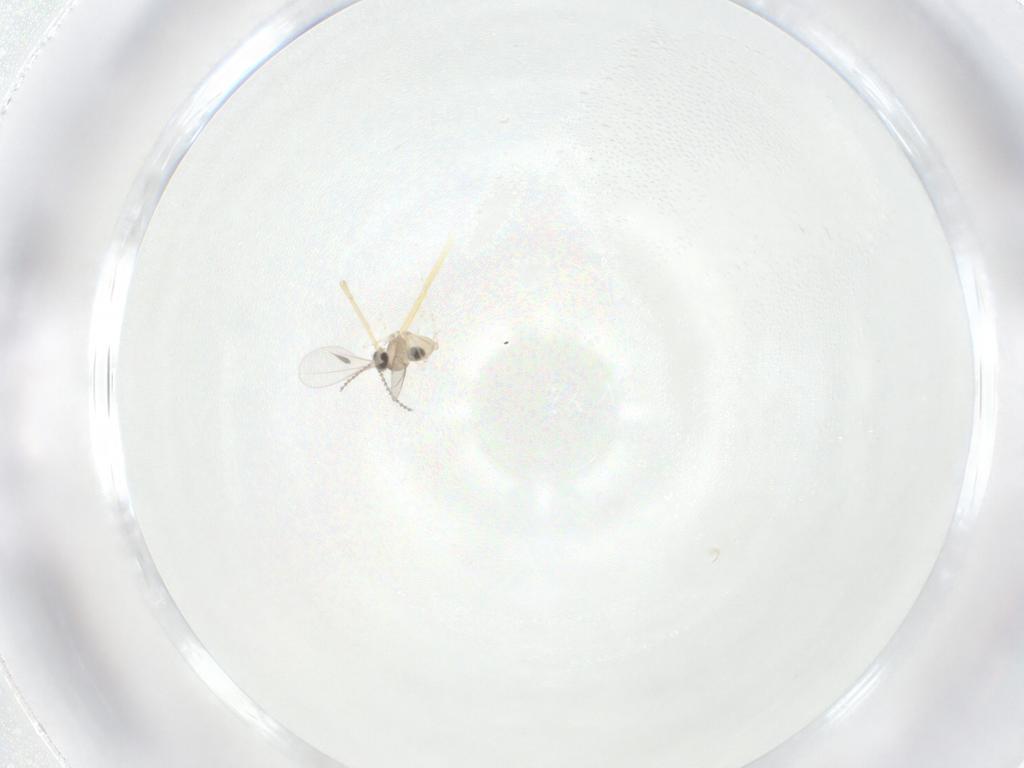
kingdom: Animalia
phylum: Arthropoda
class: Insecta
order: Diptera
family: Chironomidae
